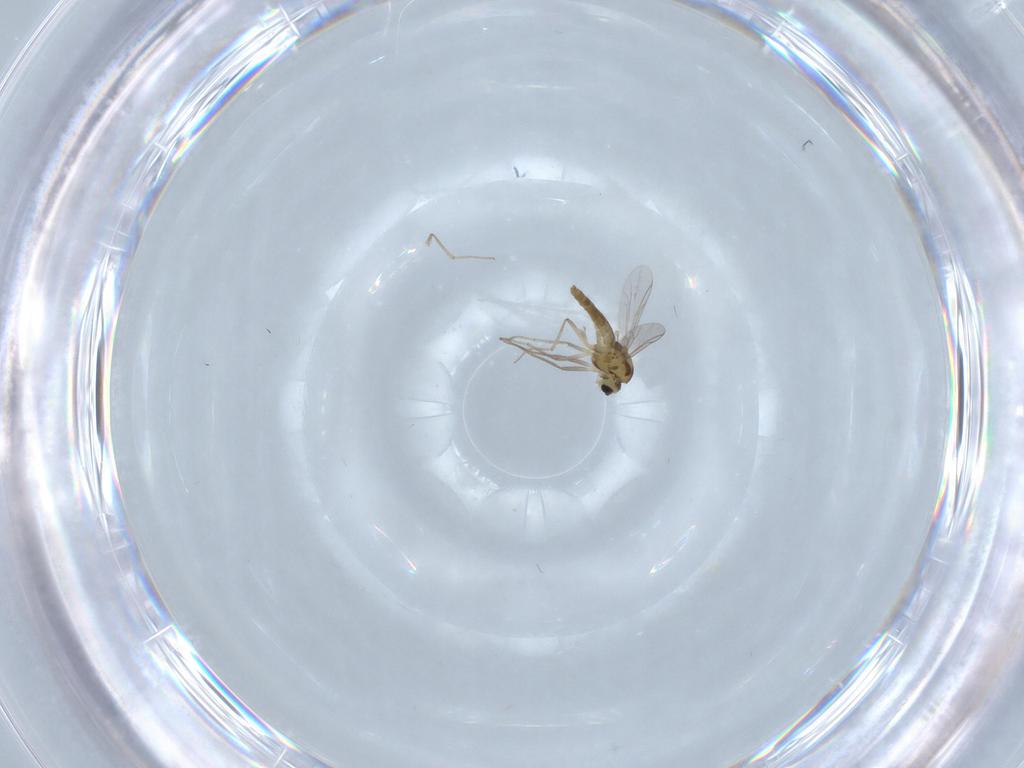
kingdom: Animalia
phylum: Arthropoda
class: Insecta
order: Diptera
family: Chironomidae
